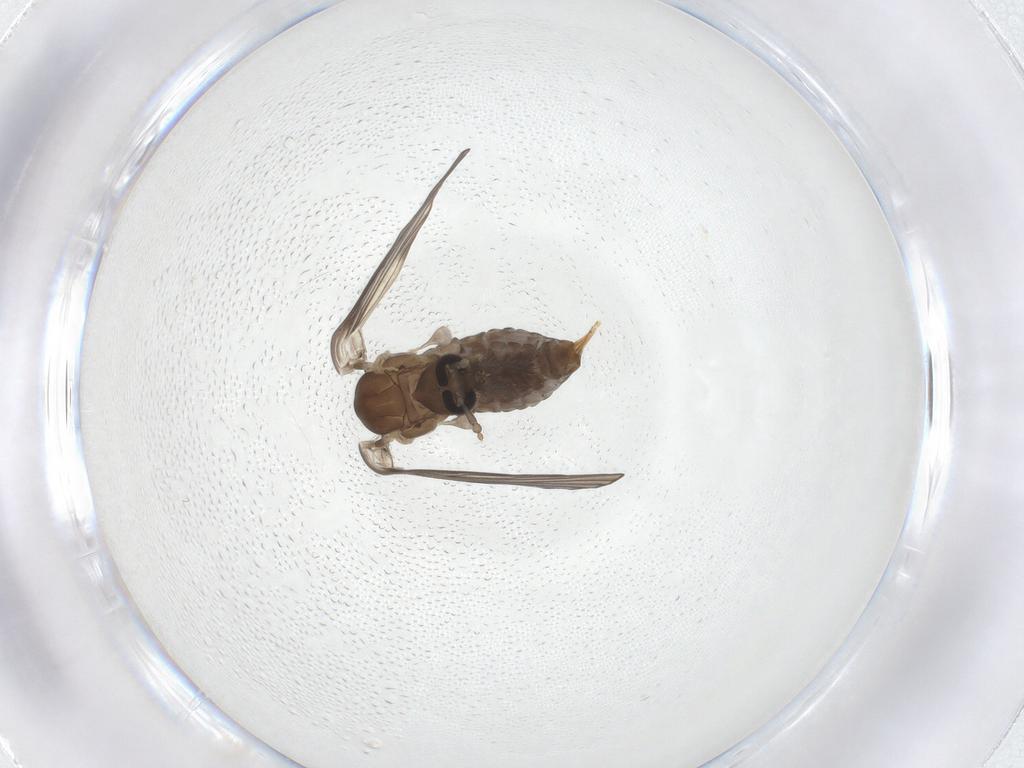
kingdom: Animalia
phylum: Arthropoda
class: Insecta
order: Diptera
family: Psychodidae
